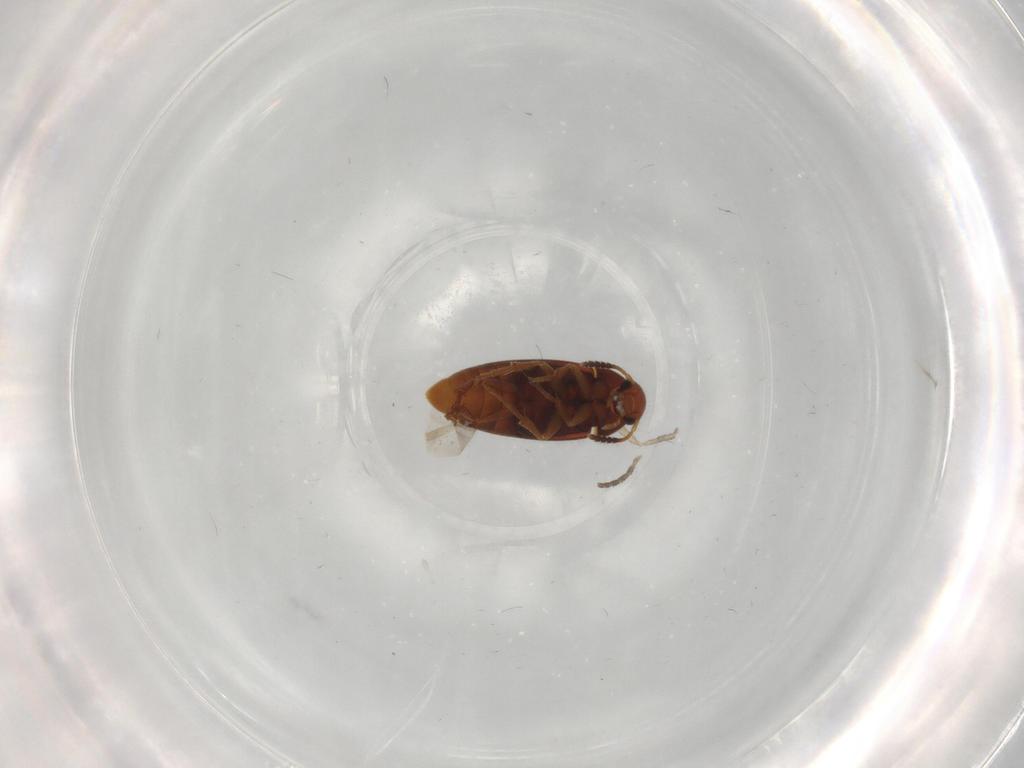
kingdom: Animalia
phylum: Arthropoda
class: Insecta
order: Coleoptera
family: Scraptiidae
